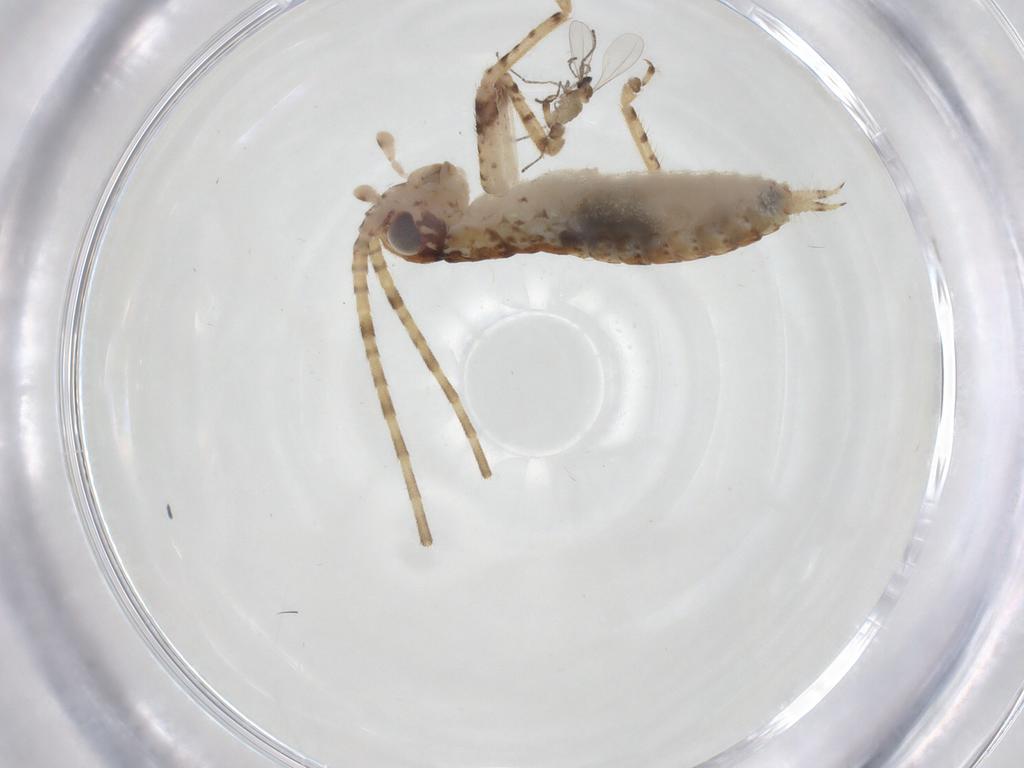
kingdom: Animalia
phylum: Arthropoda
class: Insecta
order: Orthoptera
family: Gryllidae
